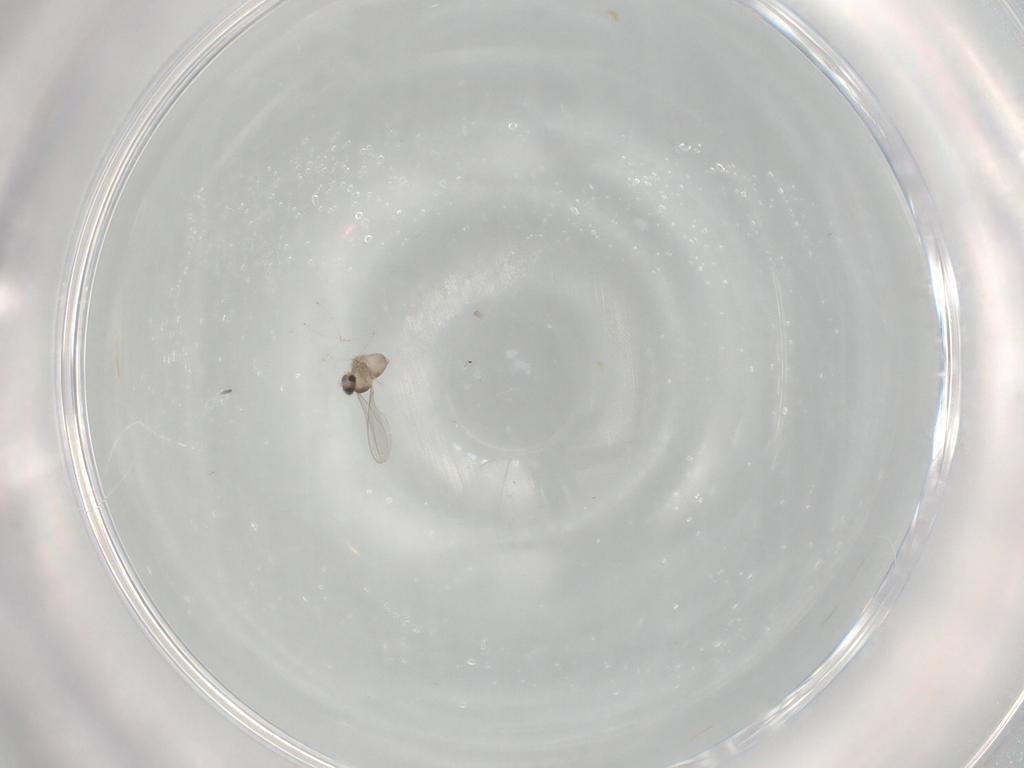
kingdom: Animalia
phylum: Arthropoda
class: Insecta
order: Diptera
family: Cecidomyiidae
